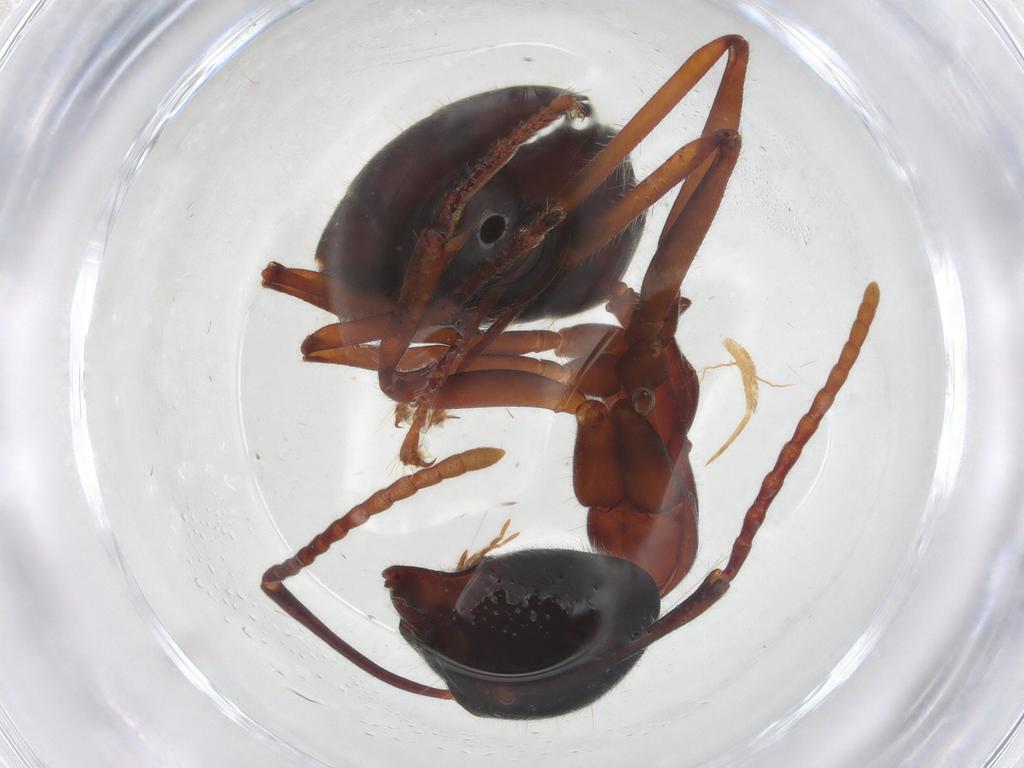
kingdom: Animalia
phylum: Arthropoda
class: Insecta
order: Hymenoptera
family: Formicidae
